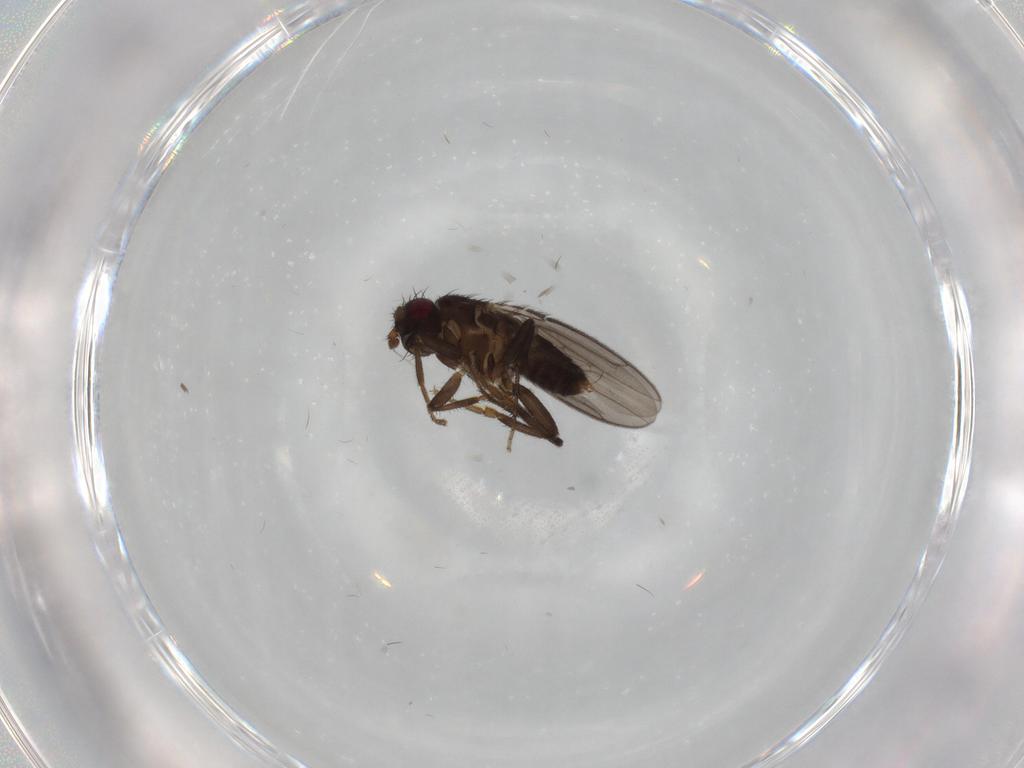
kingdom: Animalia
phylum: Arthropoda
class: Insecta
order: Diptera
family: Sphaeroceridae
